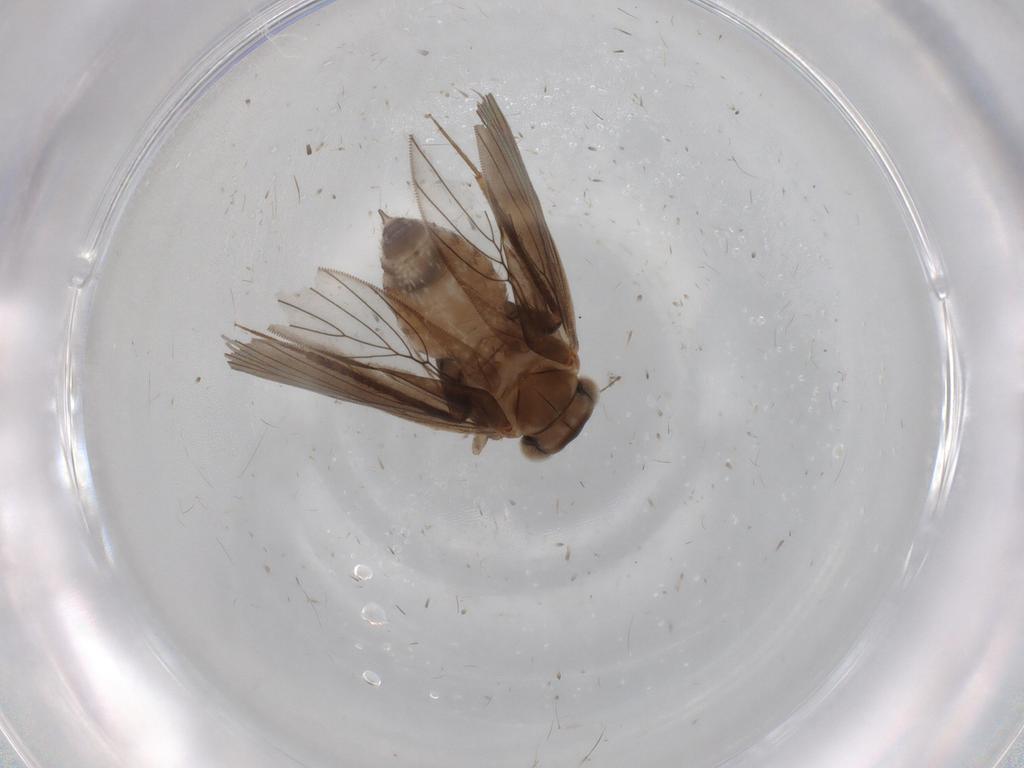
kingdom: Animalia
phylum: Arthropoda
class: Insecta
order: Psocodea
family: Lepidopsocidae
